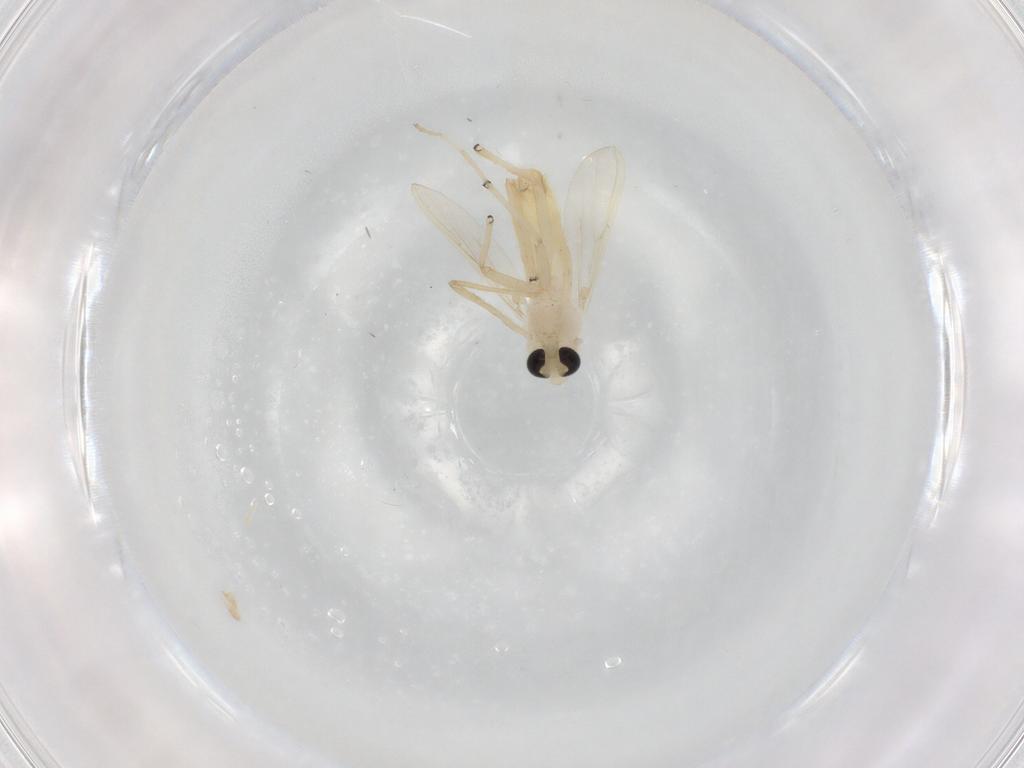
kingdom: Animalia
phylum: Arthropoda
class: Insecta
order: Diptera
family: Chironomidae
